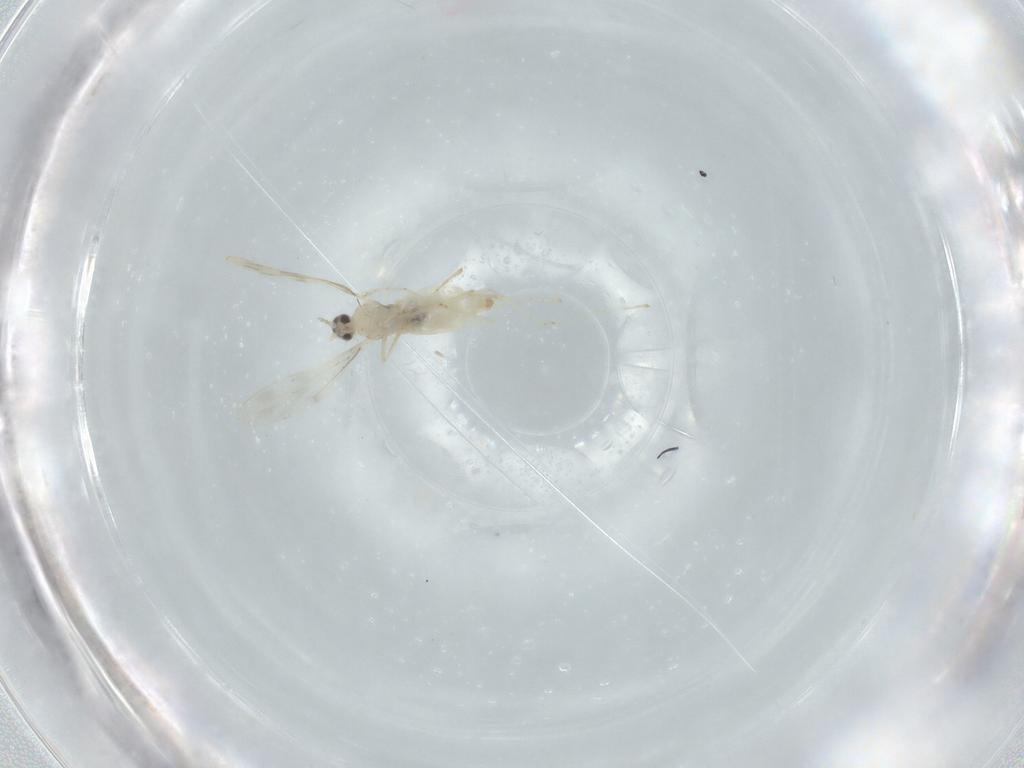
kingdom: Animalia
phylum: Arthropoda
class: Insecta
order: Diptera
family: Cecidomyiidae
